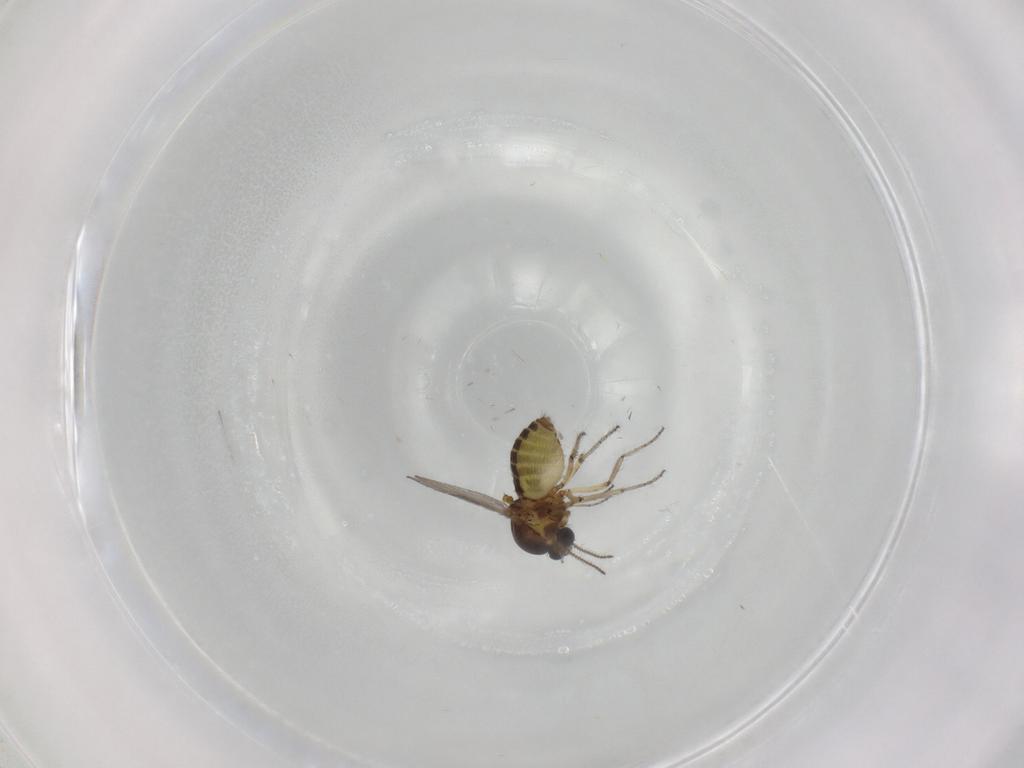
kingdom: Animalia
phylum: Arthropoda
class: Insecta
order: Diptera
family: Ceratopogonidae
